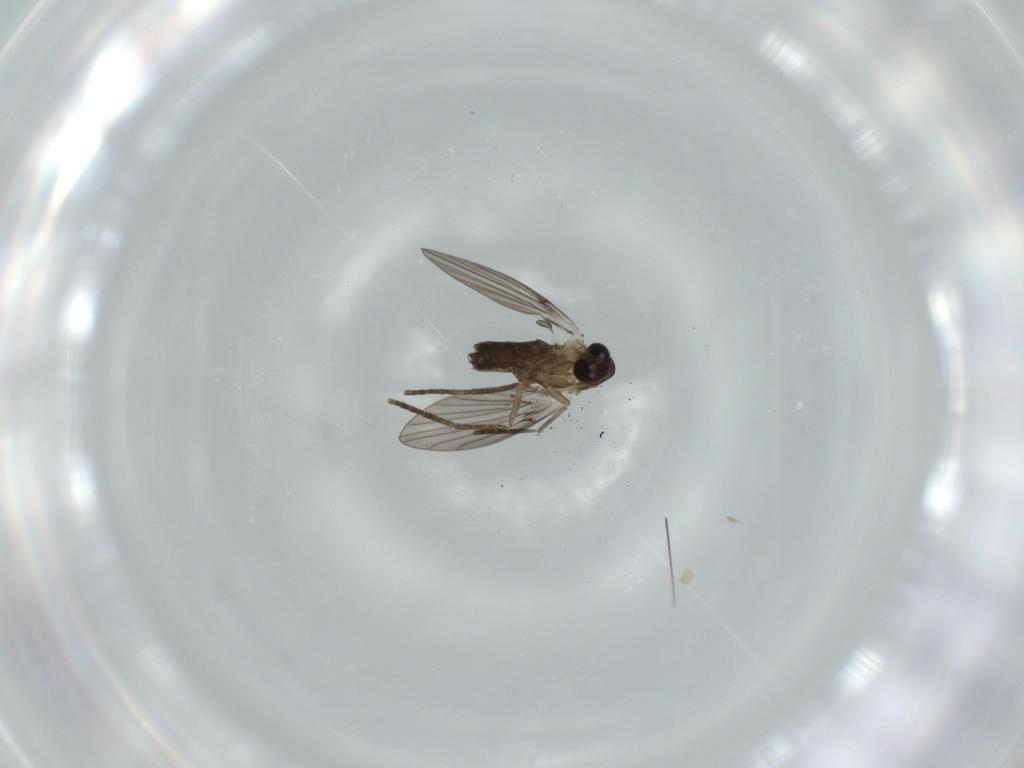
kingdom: Animalia
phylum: Arthropoda
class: Insecta
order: Diptera
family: Psychodidae
